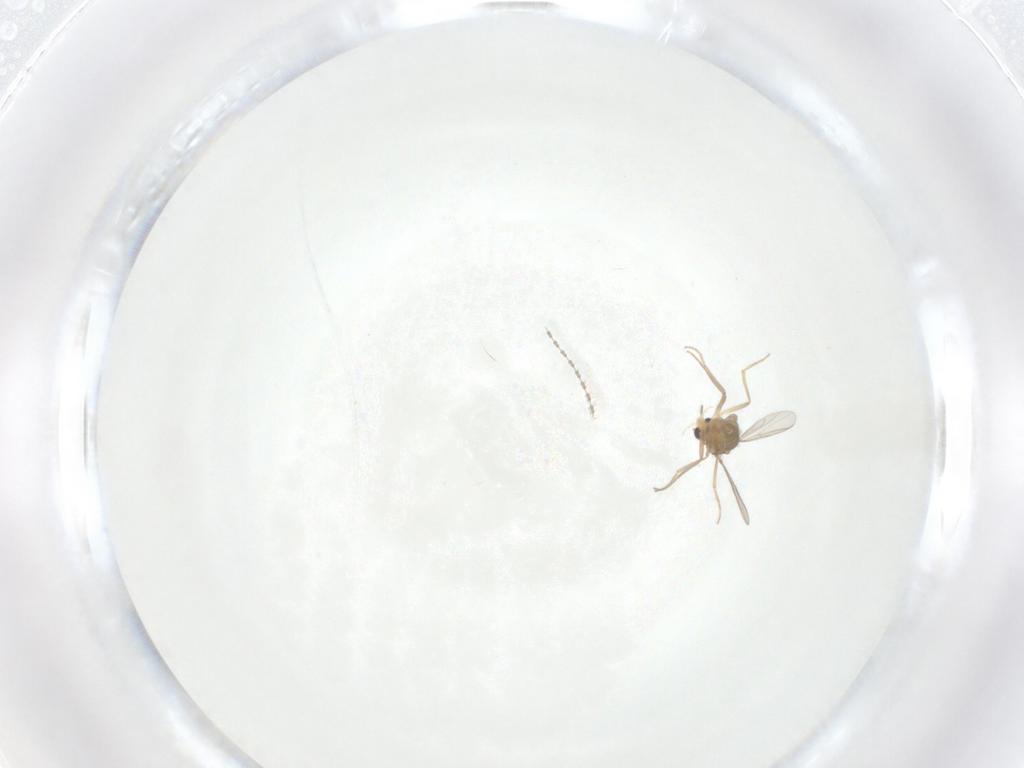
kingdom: Animalia
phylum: Arthropoda
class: Insecta
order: Diptera
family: Chironomidae
